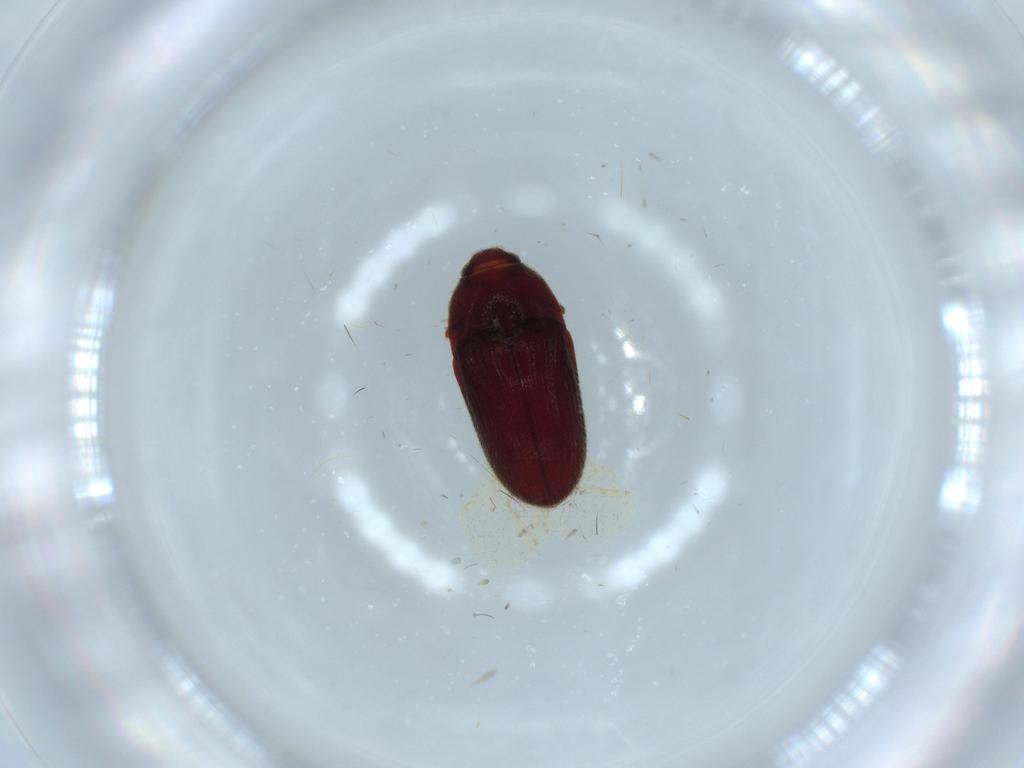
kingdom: Animalia
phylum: Arthropoda
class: Insecta
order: Coleoptera
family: Throscidae
